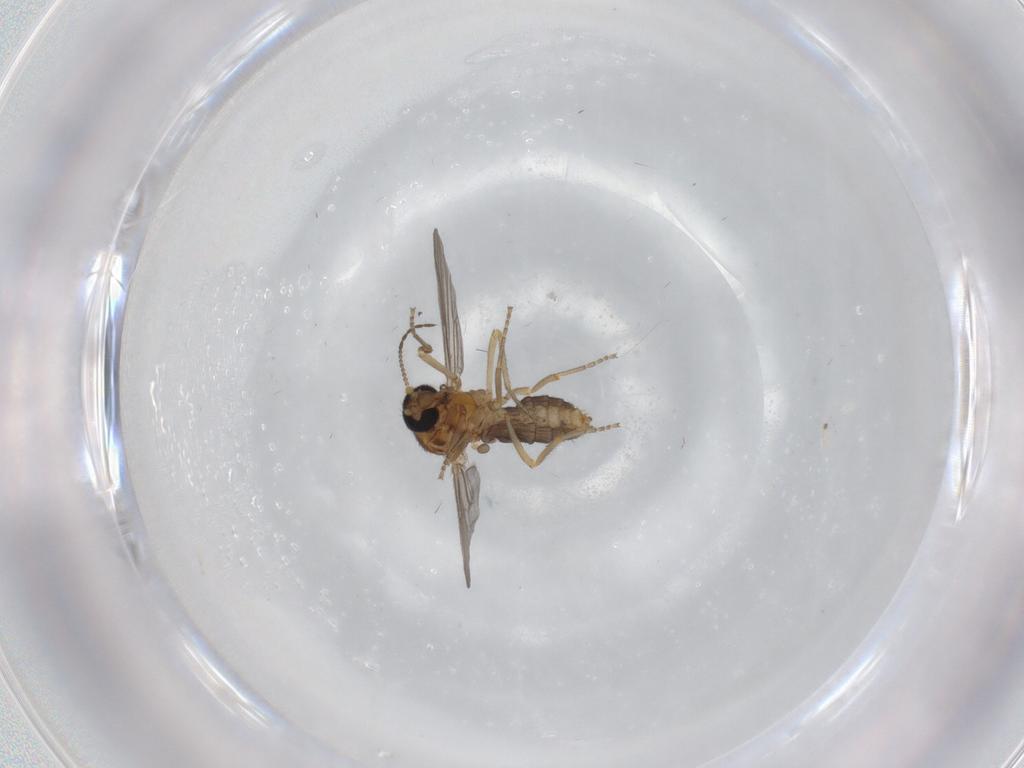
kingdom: Animalia
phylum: Arthropoda
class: Insecta
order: Diptera
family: Ceratopogonidae
